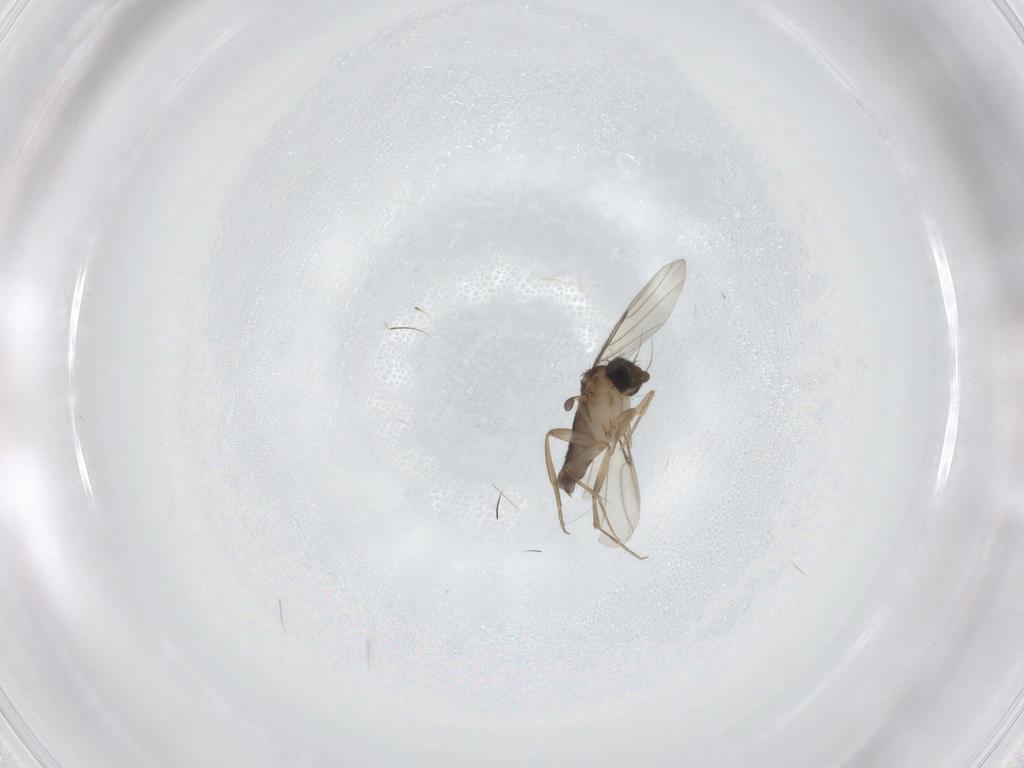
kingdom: Animalia
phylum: Arthropoda
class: Insecta
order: Diptera
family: Phoridae
